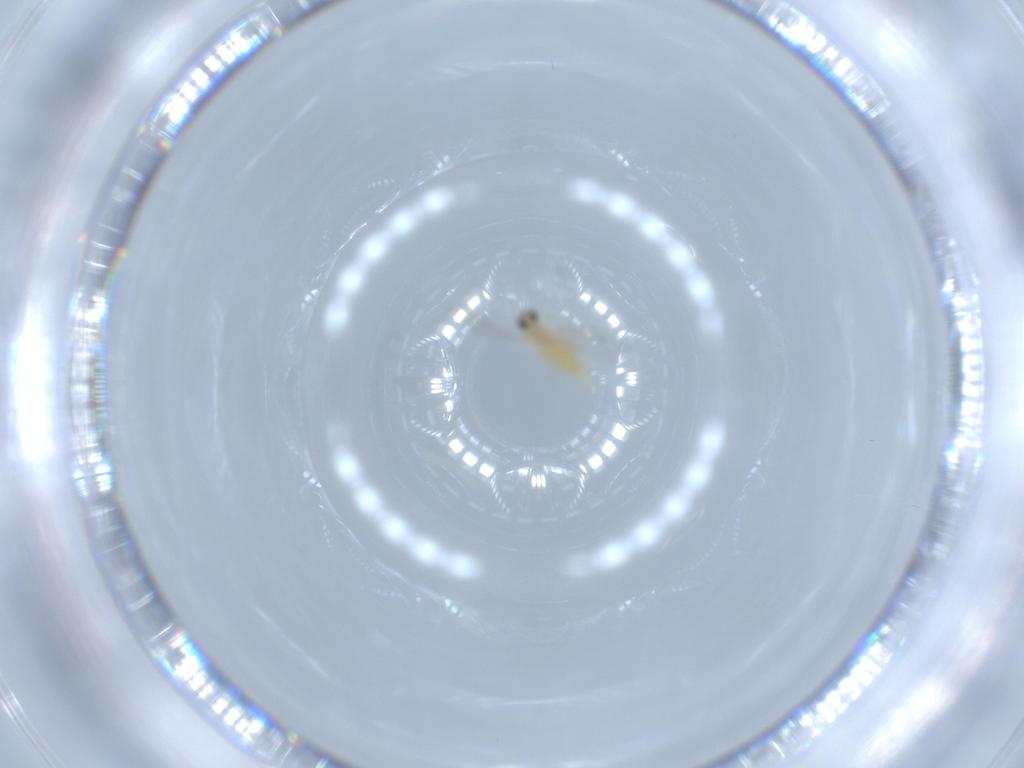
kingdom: Animalia
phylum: Arthropoda
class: Insecta
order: Diptera
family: Cecidomyiidae
